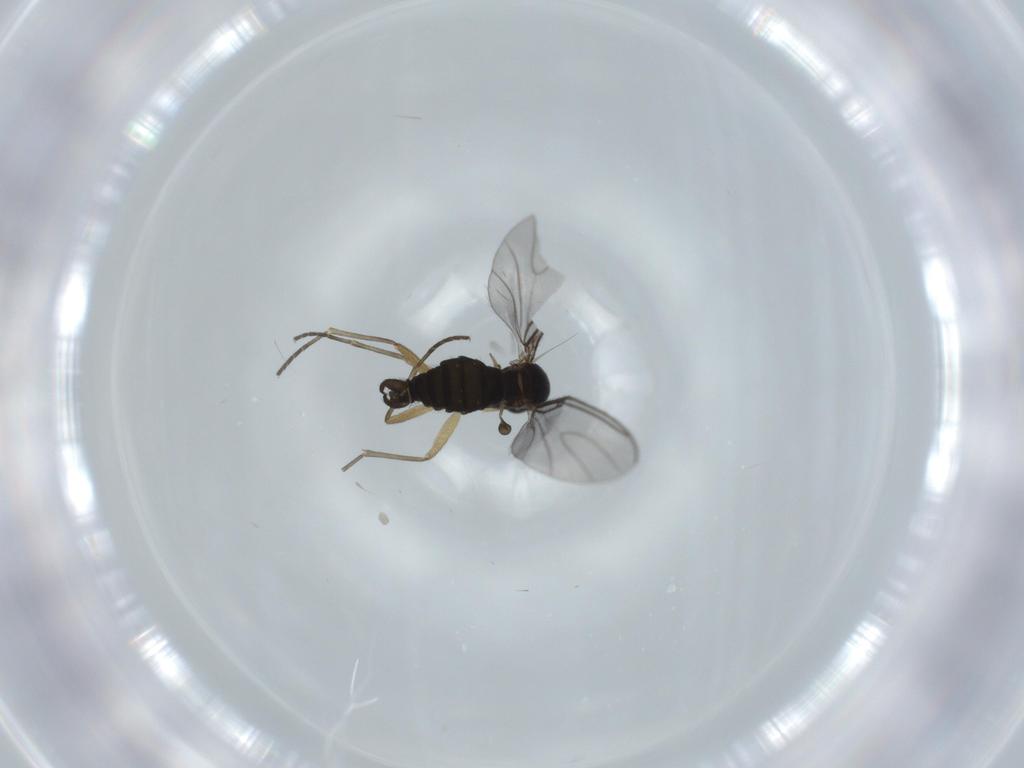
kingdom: Animalia
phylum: Arthropoda
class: Insecta
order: Diptera
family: Sciaridae
